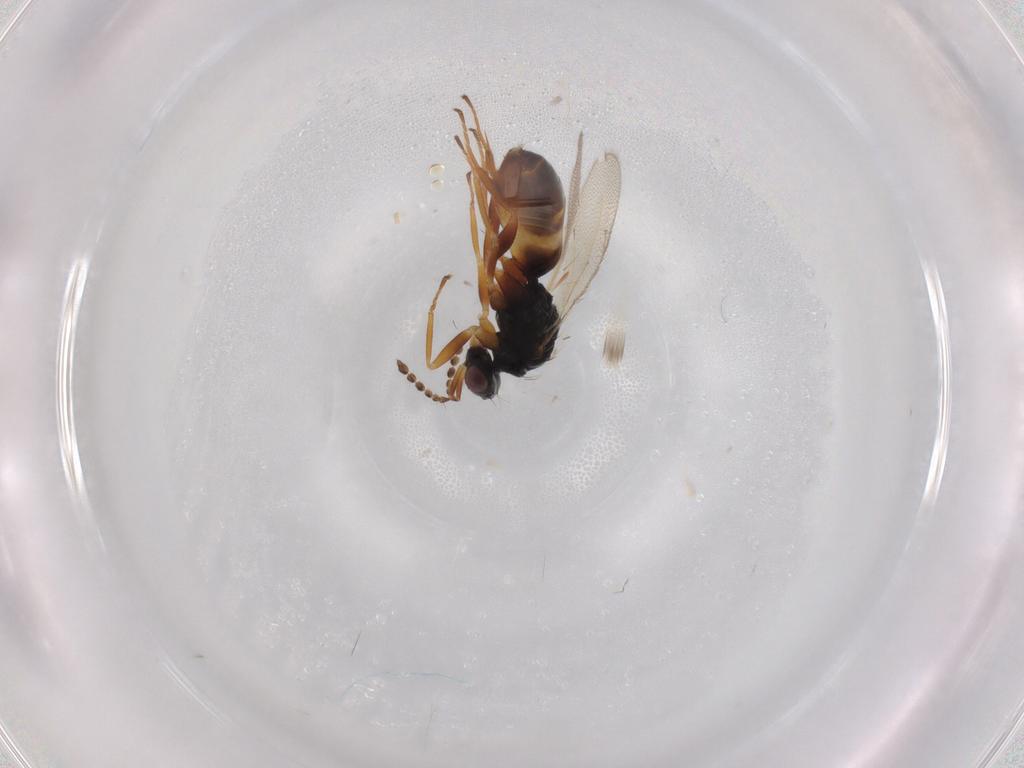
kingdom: Animalia
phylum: Arthropoda
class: Insecta
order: Hymenoptera
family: Eulophidae
